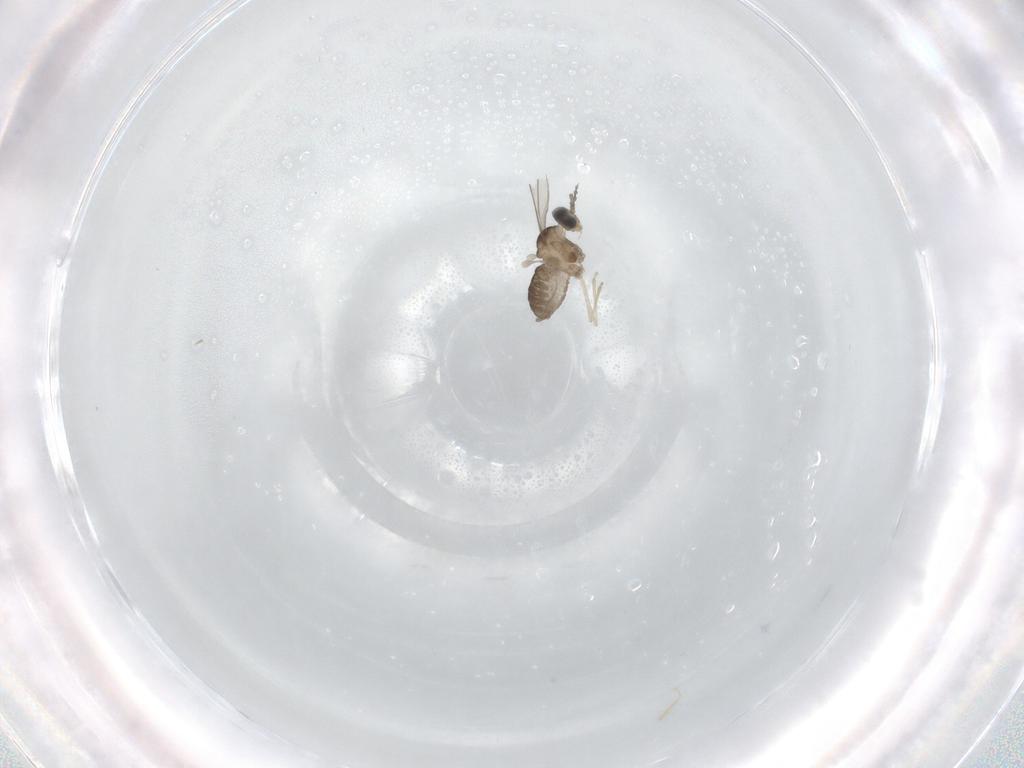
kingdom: Animalia
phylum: Arthropoda
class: Insecta
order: Diptera
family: Cecidomyiidae
